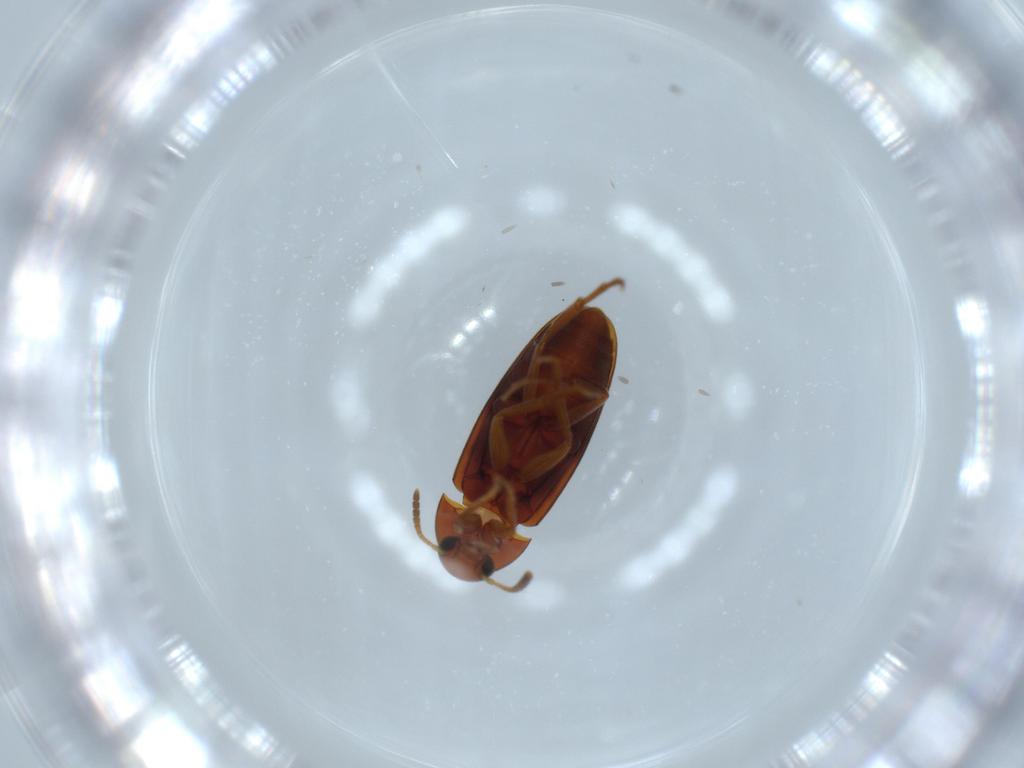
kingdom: Animalia
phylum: Arthropoda
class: Insecta
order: Coleoptera
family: Scraptiidae
